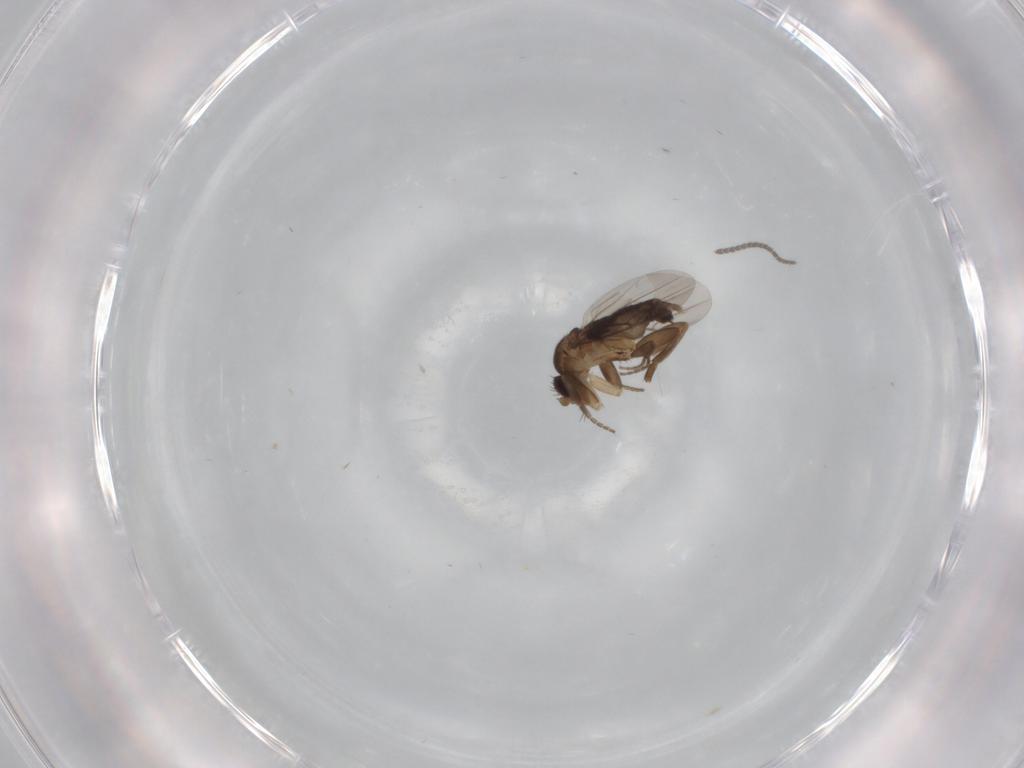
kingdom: Animalia
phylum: Arthropoda
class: Insecta
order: Diptera
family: Phoridae
